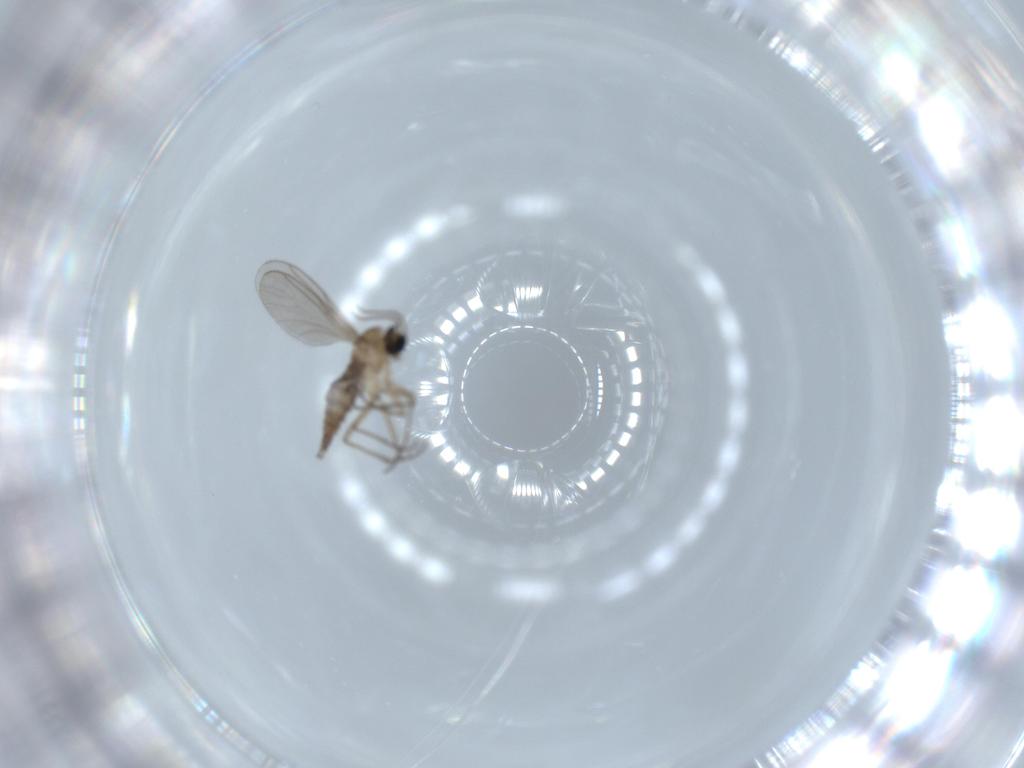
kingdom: Animalia
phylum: Arthropoda
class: Insecta
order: Diptera
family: Sciaridae
